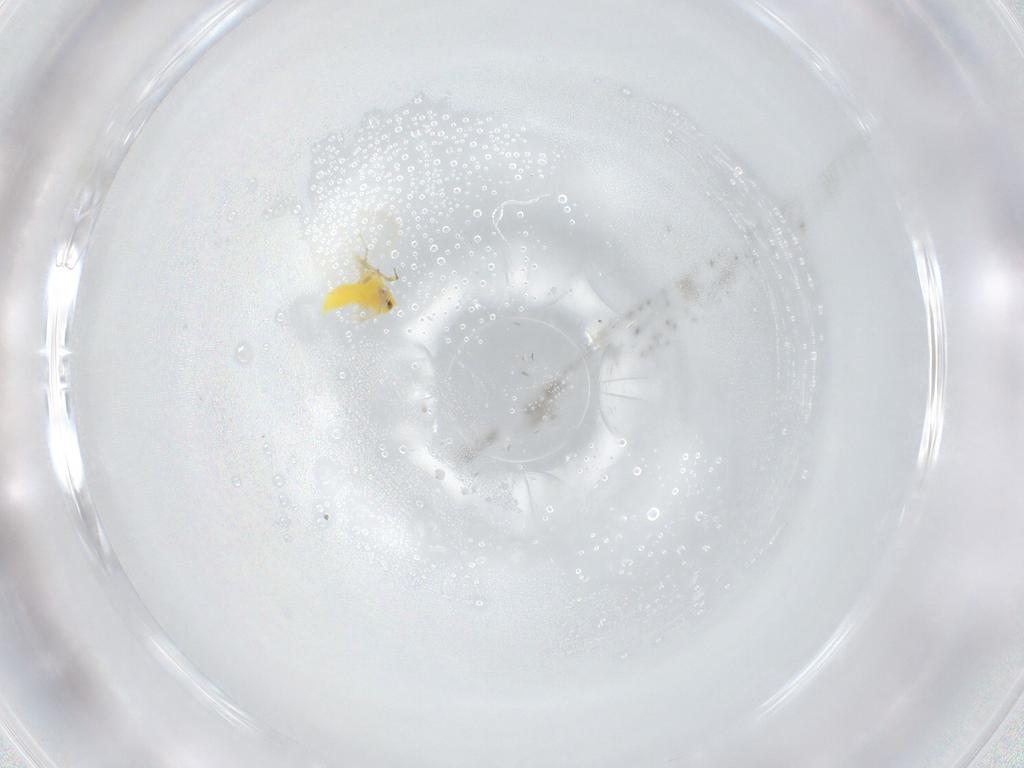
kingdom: Animalia
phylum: Arthropoda
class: Insecta
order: Hemiptera
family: Aleyrodidae
